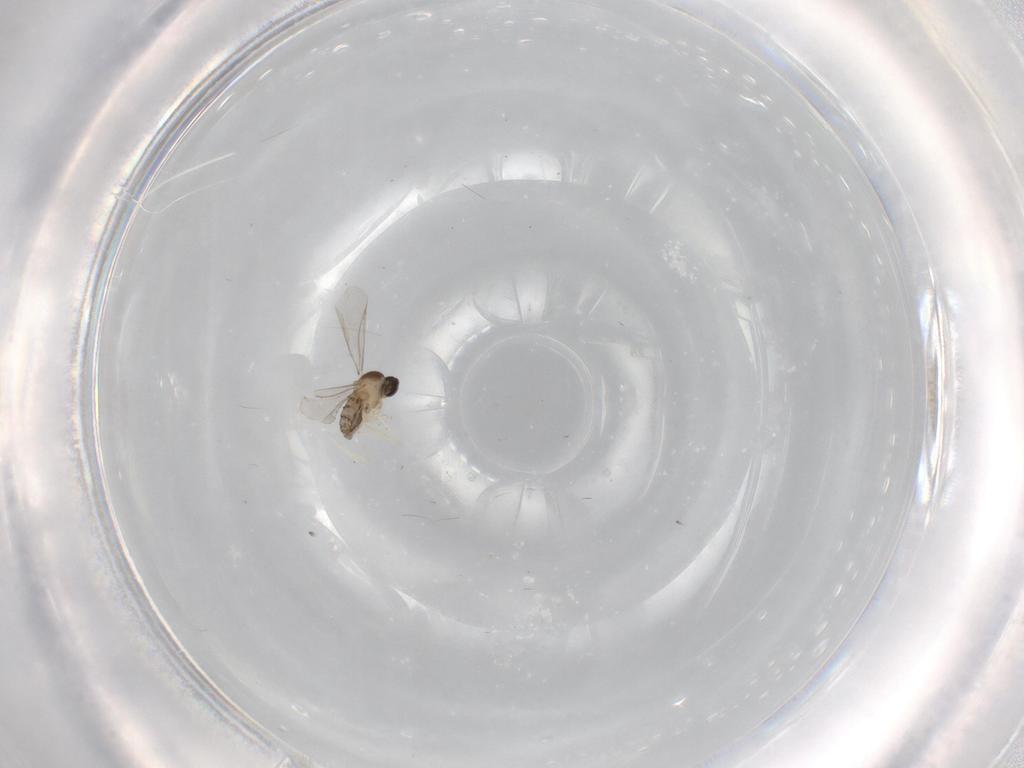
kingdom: Animalia
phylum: Arthropoda
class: Insecta
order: Diptera
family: Cecidomyiidae
